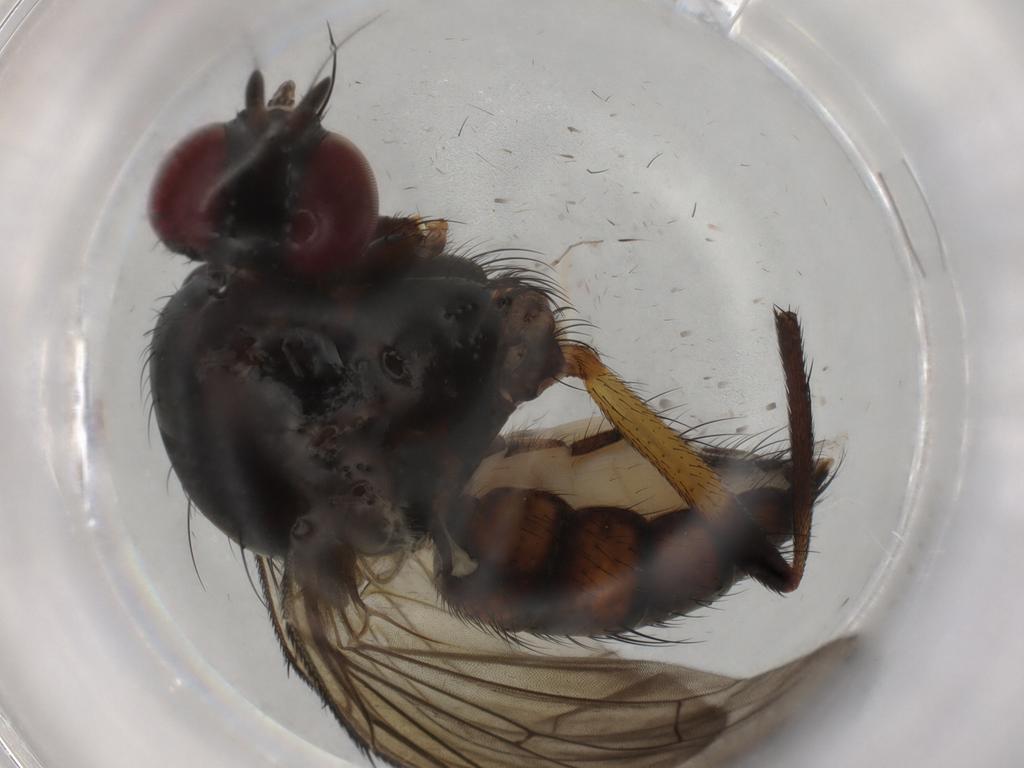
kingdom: Animalia
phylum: Arthropoda
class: Insecta
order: Diptera
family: Anthomyiidae
